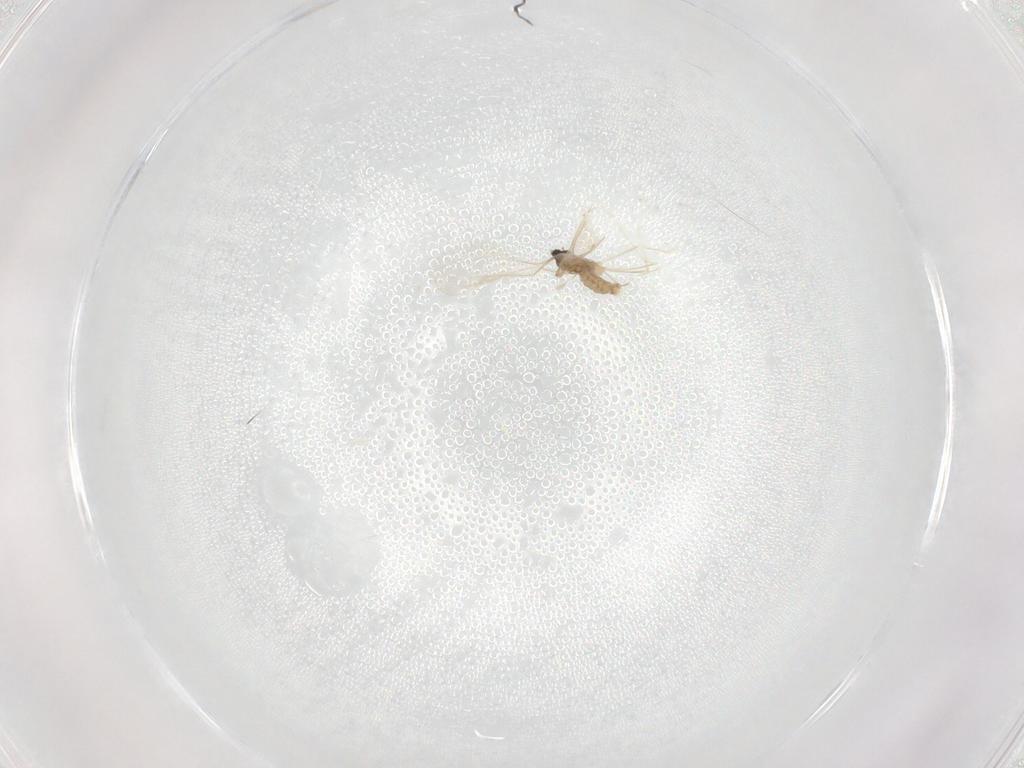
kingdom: Animalia
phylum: Arthropoda
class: Insecta
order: Diptera
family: Cecidomyiidae
